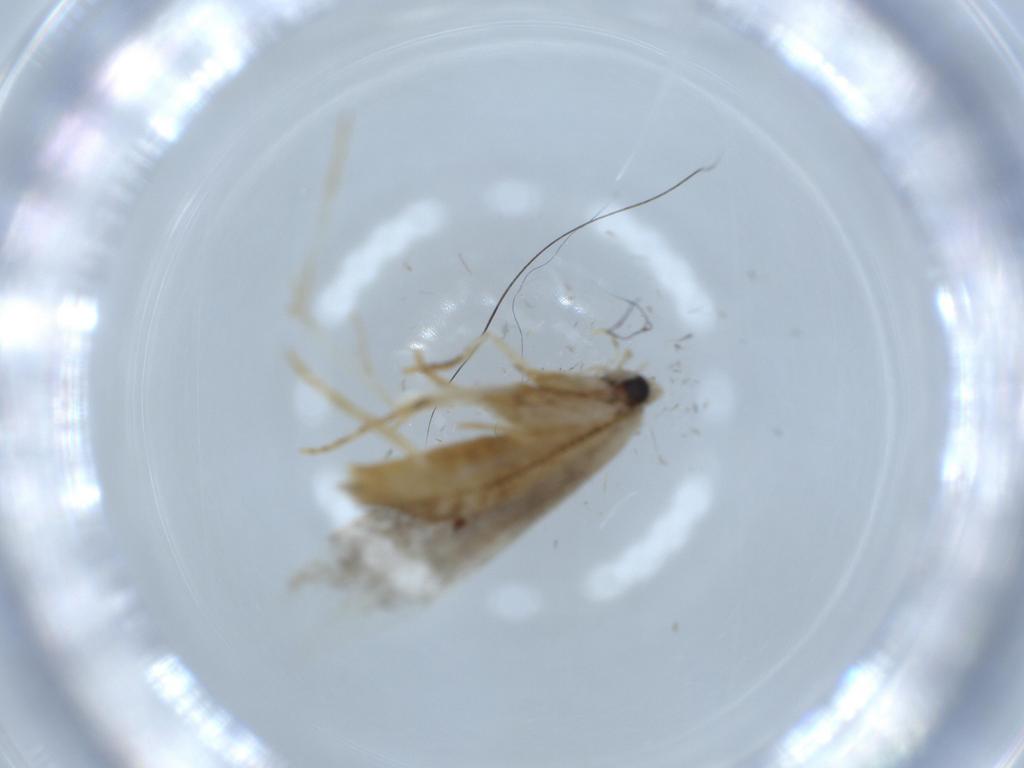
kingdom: Animalia
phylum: Arthropoda
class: Insecta
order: Lepidoptera
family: Tineidae
